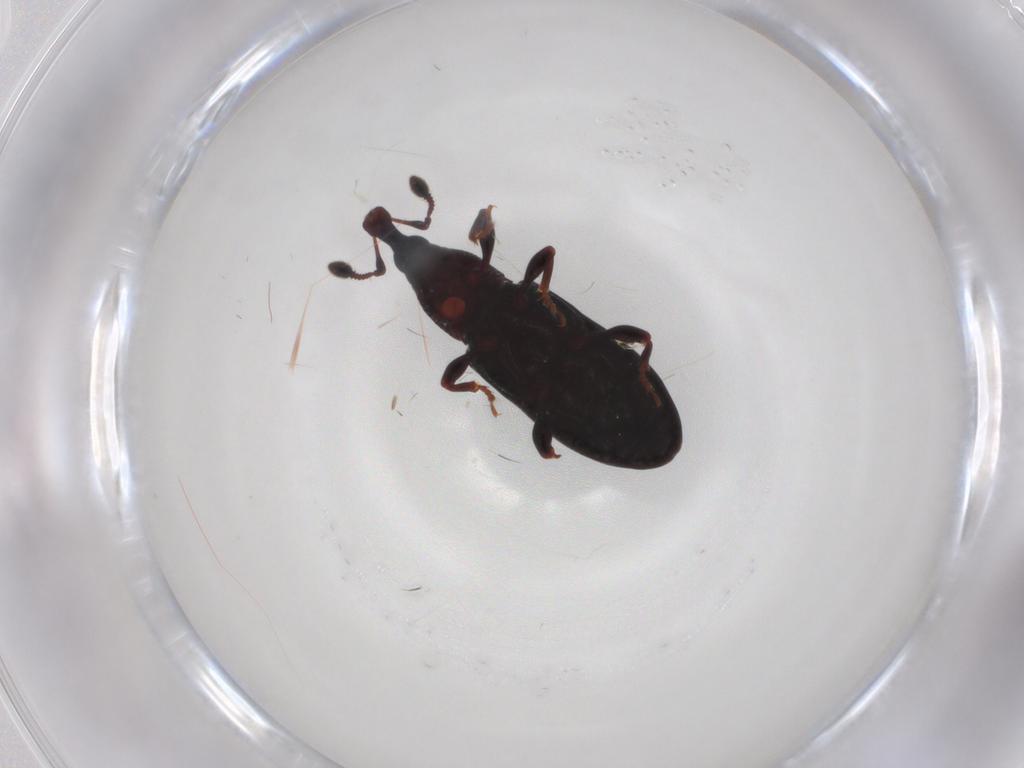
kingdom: Animalia
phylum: Arthropoda
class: Insecta
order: Coleoptera
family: Curculionidae
